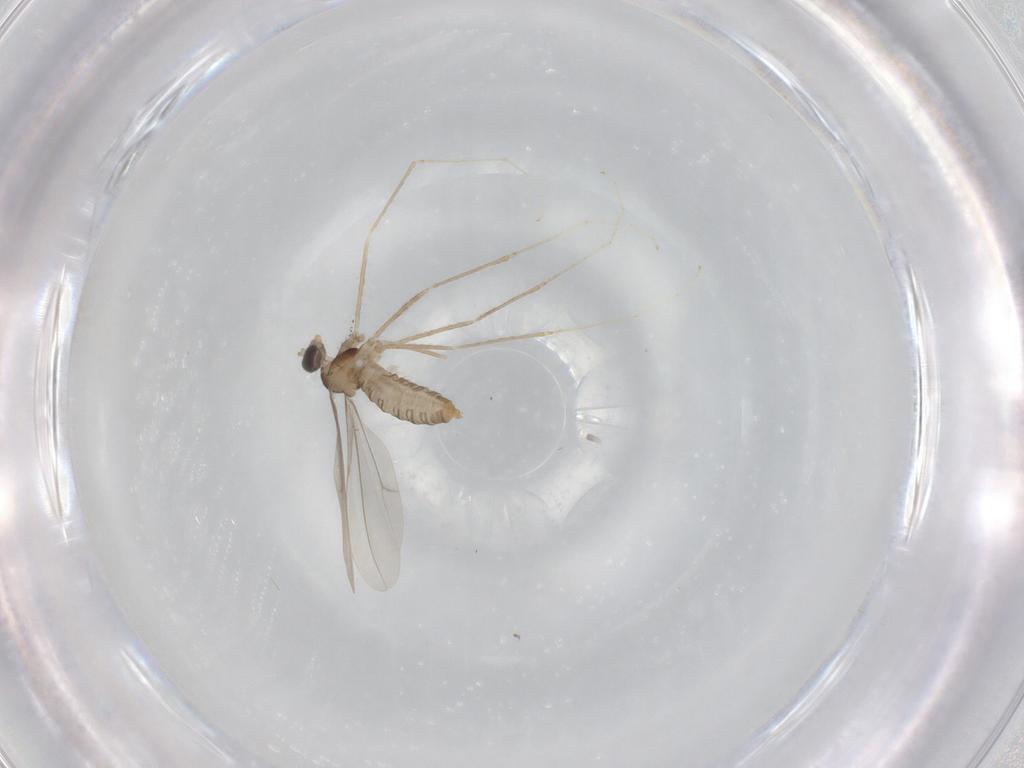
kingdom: Animalia
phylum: Arthropoda
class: Insecta
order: Diptera
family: Cecidomyiidae
